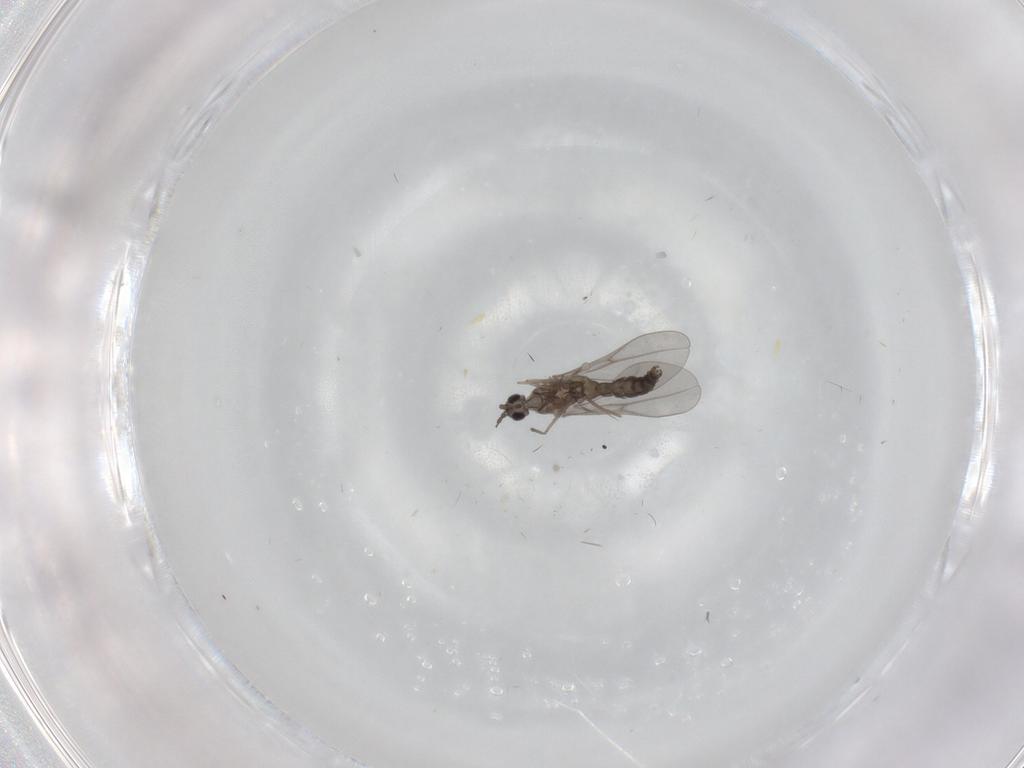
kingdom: Animalia
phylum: Arthropoda
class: Insecta
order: Diptera
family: Cecidomyiidae
